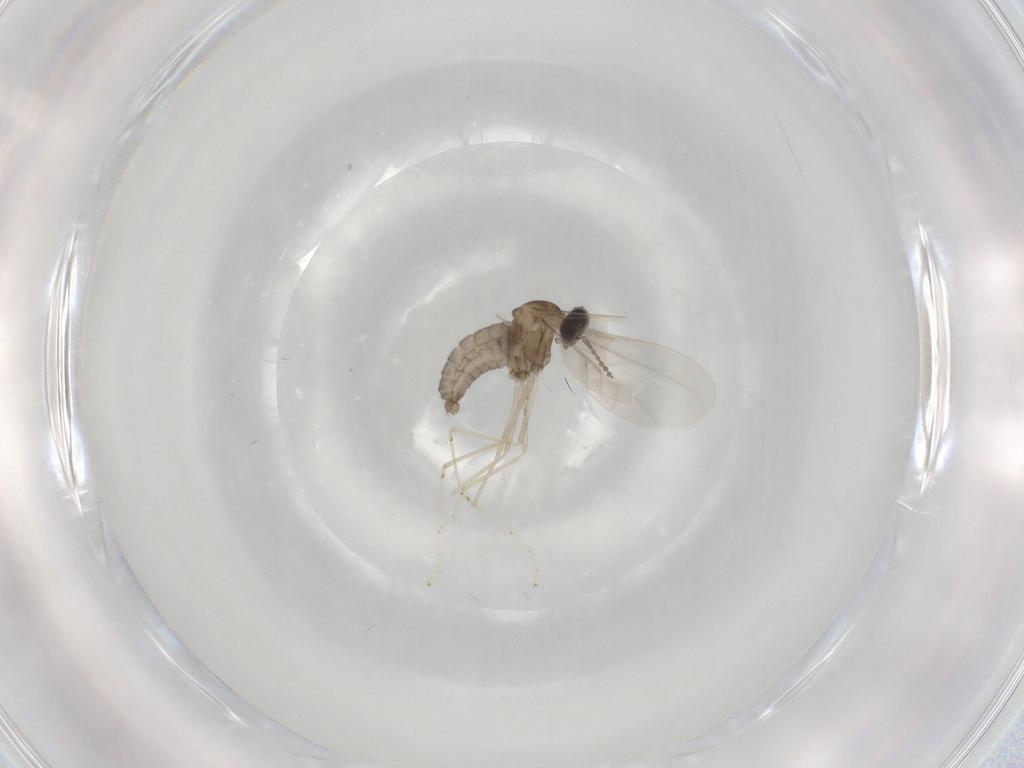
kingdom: Animalia
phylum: Arthropoda
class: Insecta
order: Diptera
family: Cecidomyiidae
